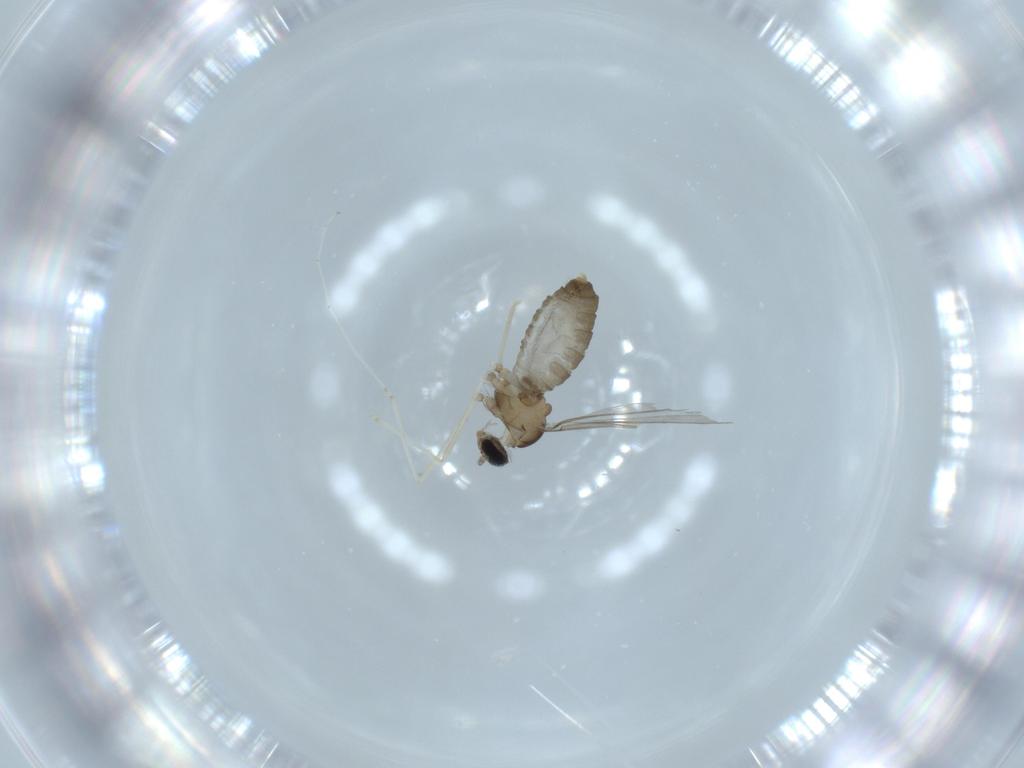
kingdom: Animalia
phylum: Arthropoda
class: Insecta
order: Diptera
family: Cecidomyiidae
